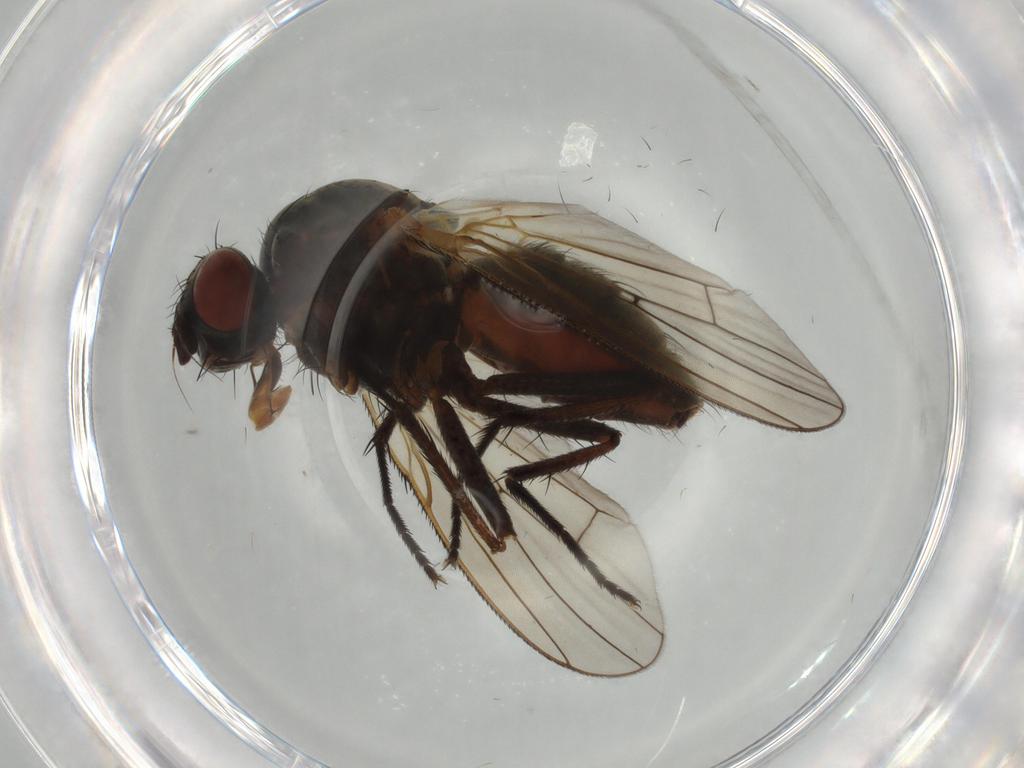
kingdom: Animalia
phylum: Arthropoda
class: Insecta
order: Diptera
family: Anthomyiidae
